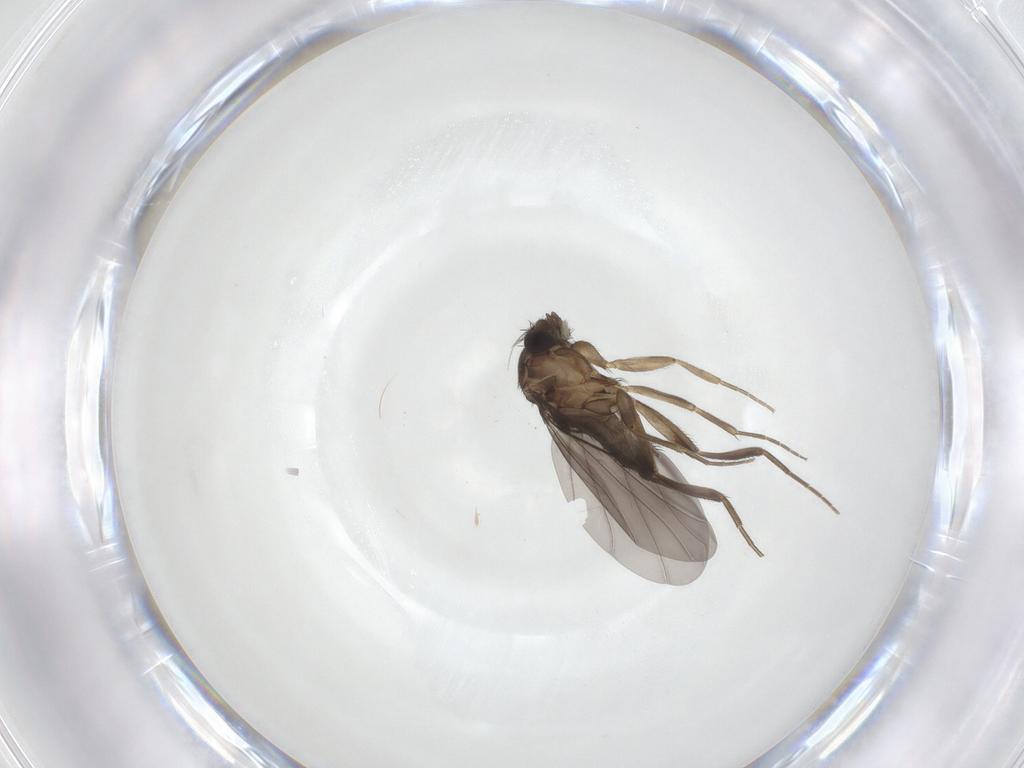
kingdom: Animalia
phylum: Arthropoda
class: Insecta
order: Diptera
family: Phoridae
